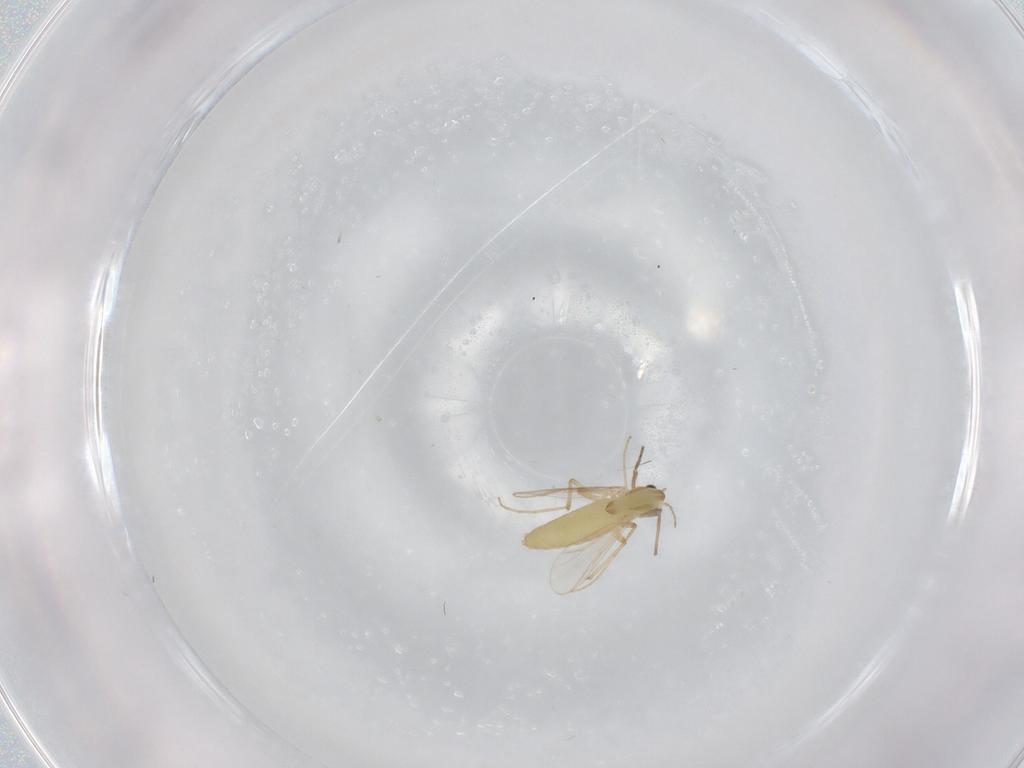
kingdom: Animalia
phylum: Arthropoda
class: Insecta
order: Diptera
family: Chironomidae
